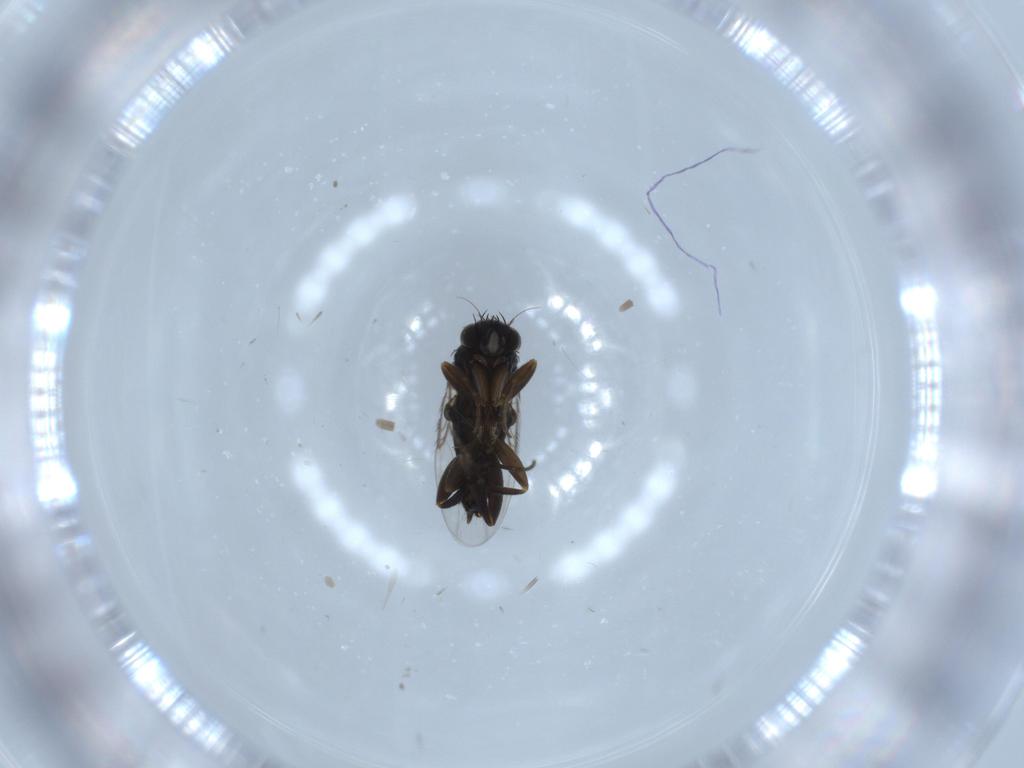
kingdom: Animalia
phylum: Arthropoda
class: Insecta
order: Diptera
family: Phoridae
